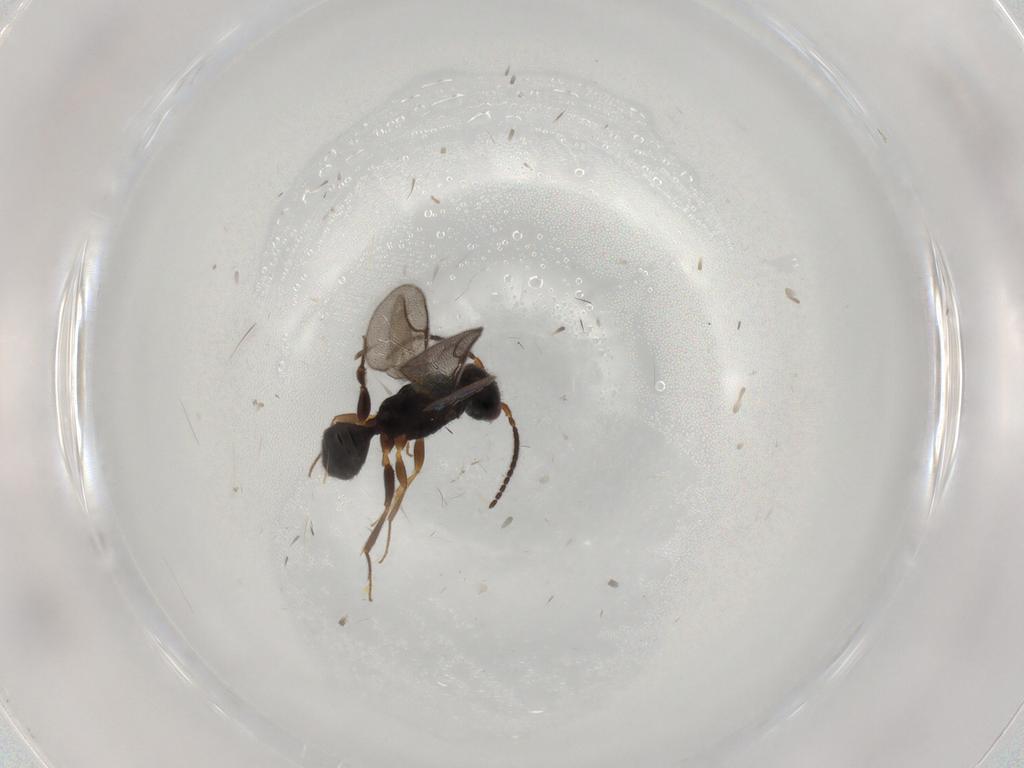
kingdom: Animalia
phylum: Arthropoda
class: Insecta
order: Hymenoptera
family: Bethylidae
